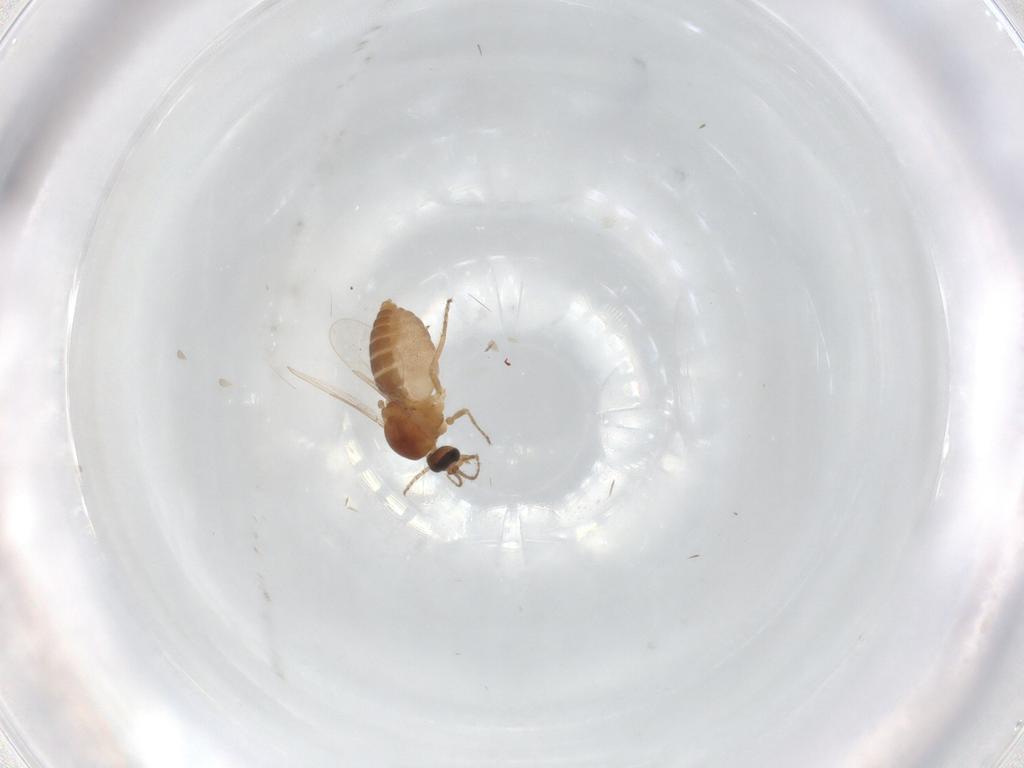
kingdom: Animalia
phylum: Arthropoda
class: Insecta
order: Diptera
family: Ceratopogonidae
